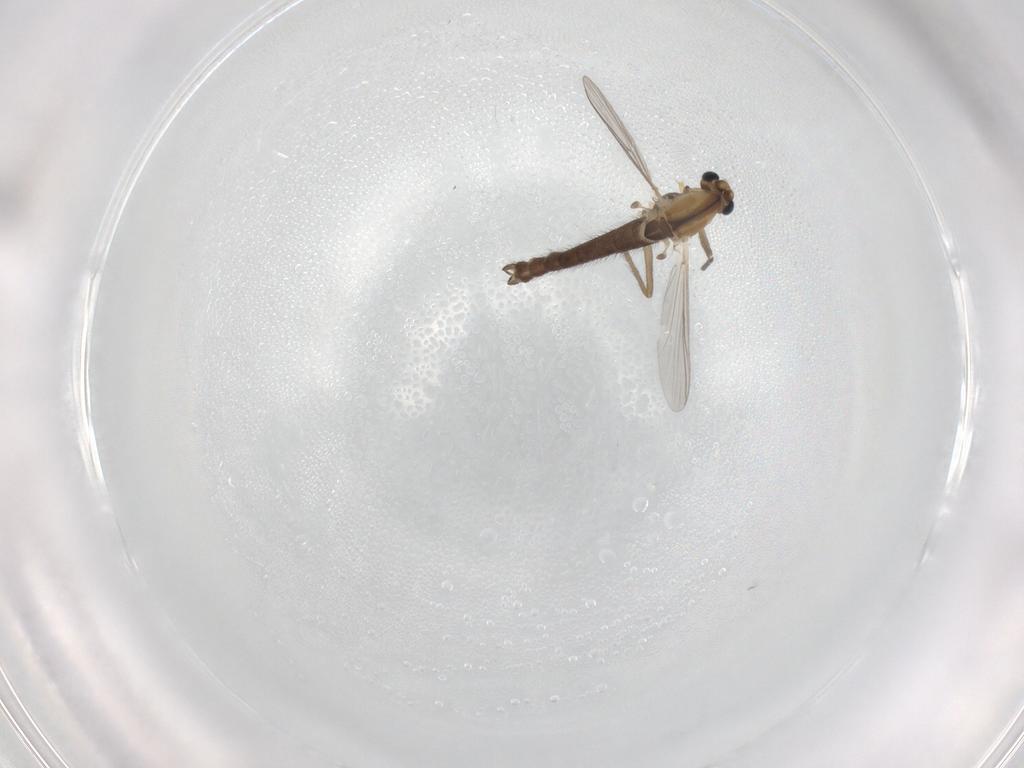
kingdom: Animalia
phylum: Arthropoda
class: Insecta
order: Diptera
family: Chironomidae
